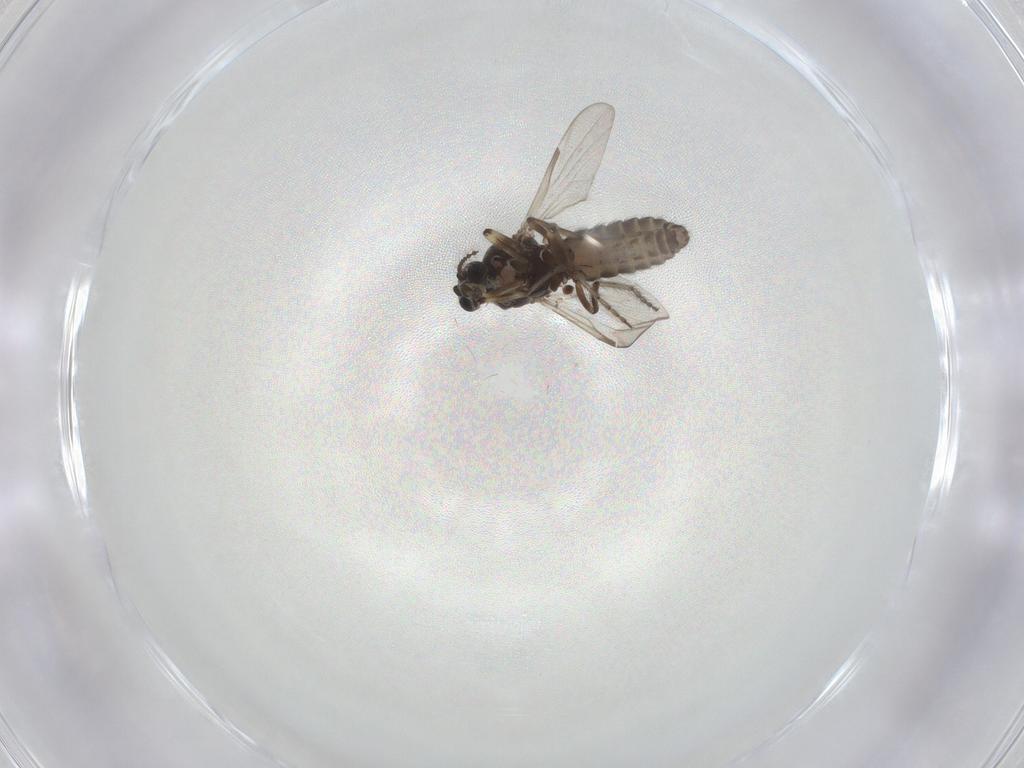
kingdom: Animalia
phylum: Arthropoda
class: Insecta
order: Diptera
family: Ceratopogonidae
